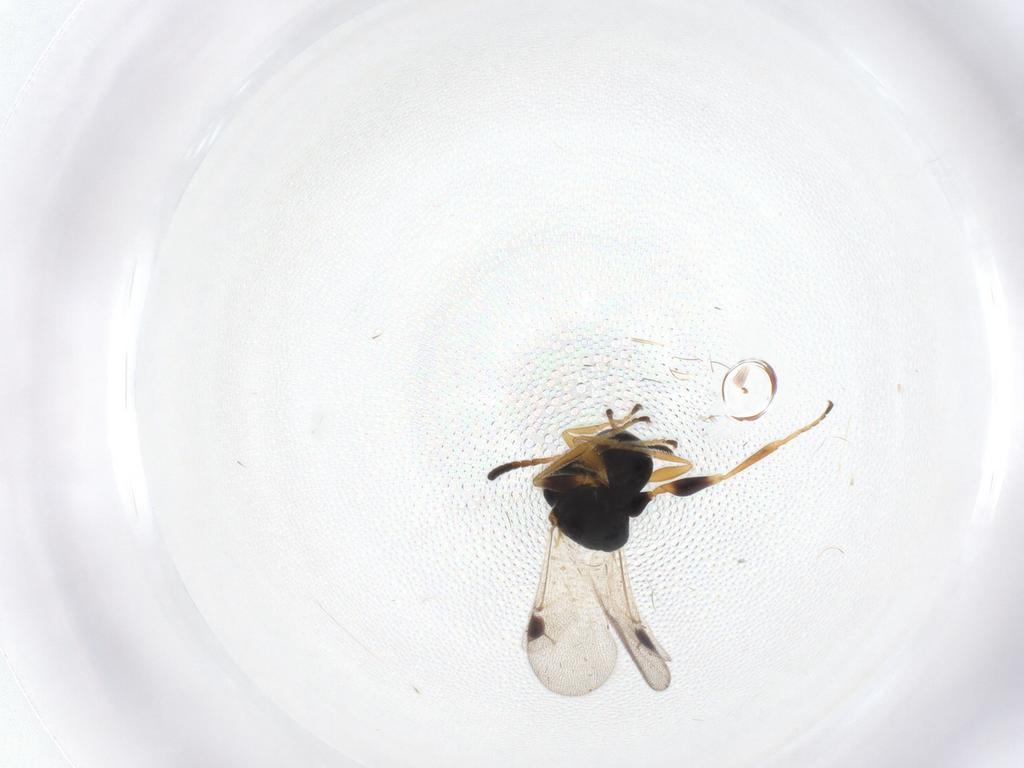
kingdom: Animalia
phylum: Arthropoda
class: Insecta
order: Hymenoptera
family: Dryinidae
